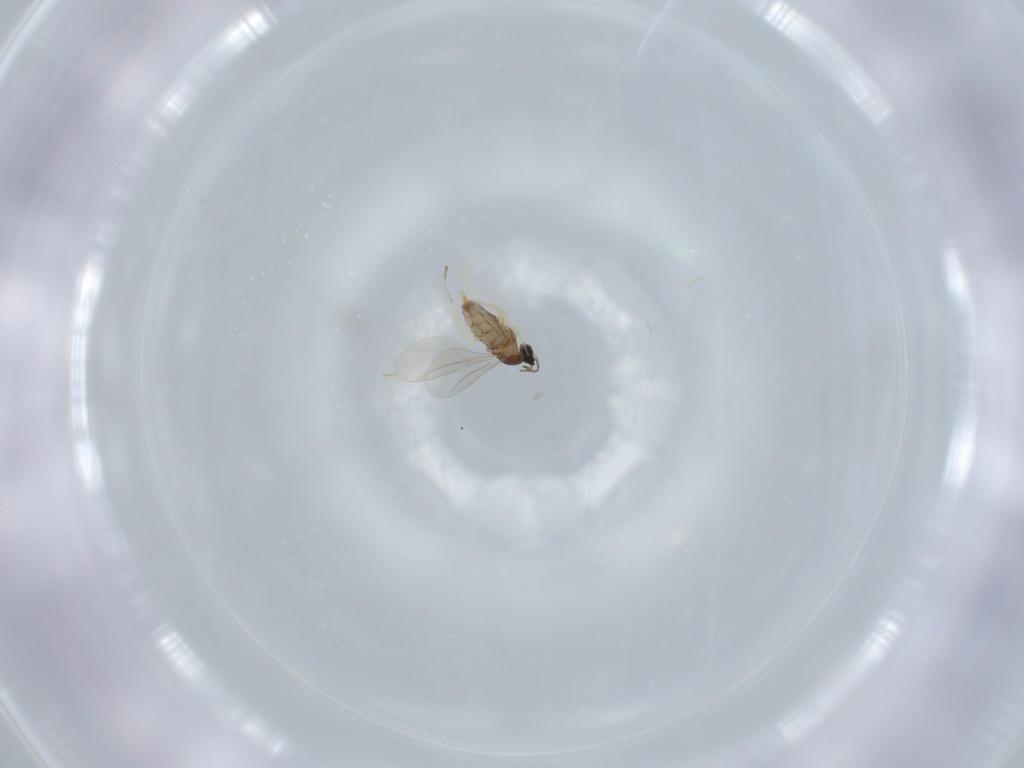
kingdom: Animalia
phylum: Arthropoda
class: Insecta
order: Diptera
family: Cecidomyiidae
